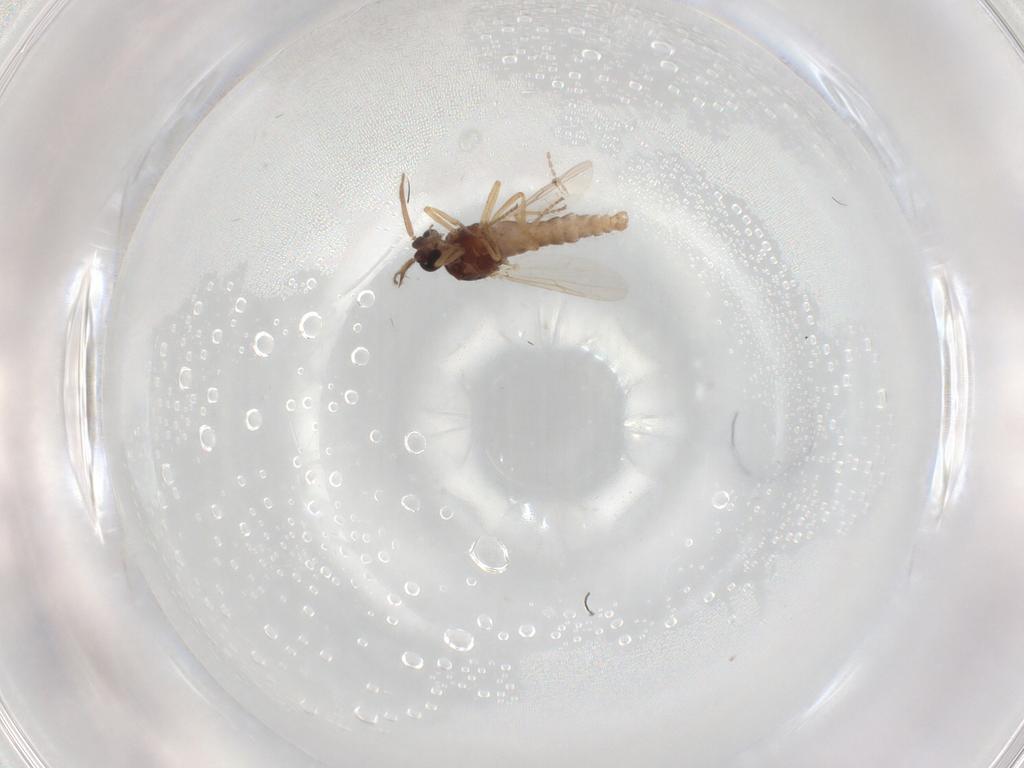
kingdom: Animalia
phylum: Arthropoda
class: Insecta
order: Diptera
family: Ceratopogonidae
